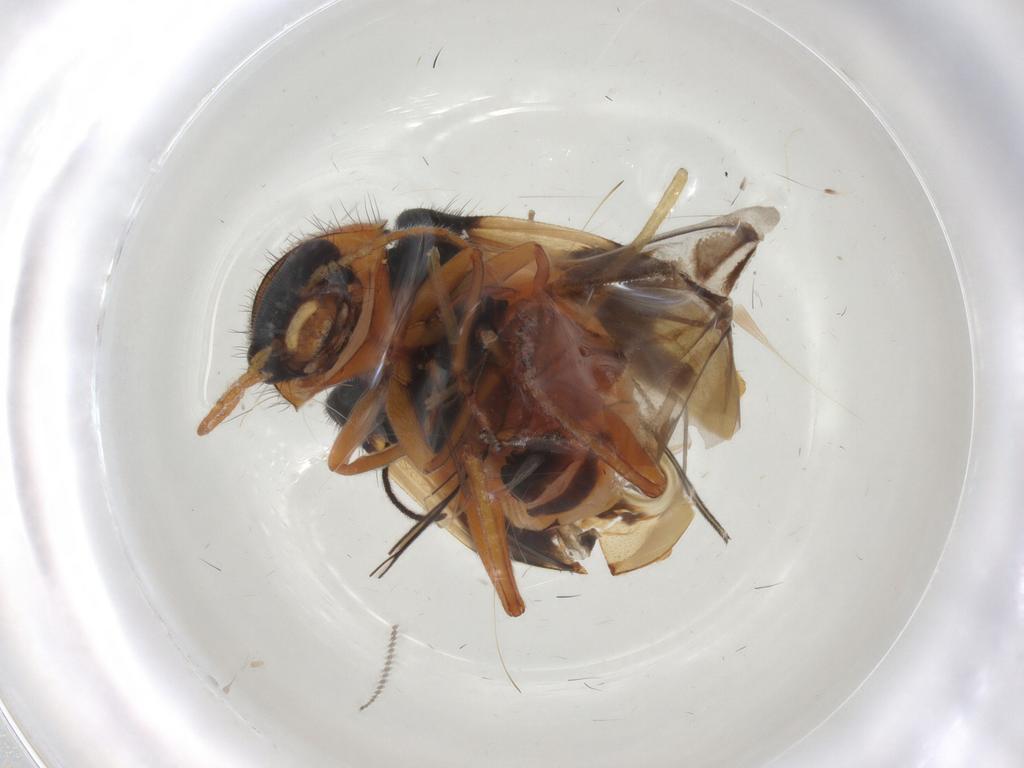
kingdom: Animalia
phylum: Arthropoda
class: Insecta
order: Coleoptera
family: Melyridae
